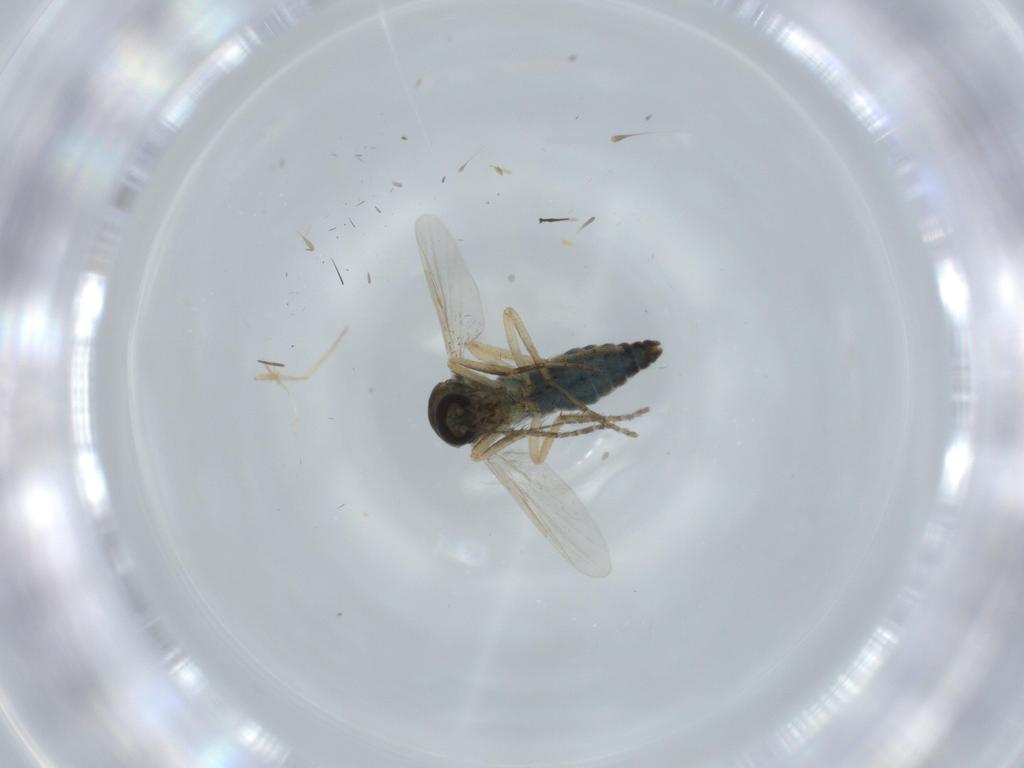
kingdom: Animalia
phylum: Arthropoda
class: Insecta
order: Diptera
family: Ceratopogonidae
